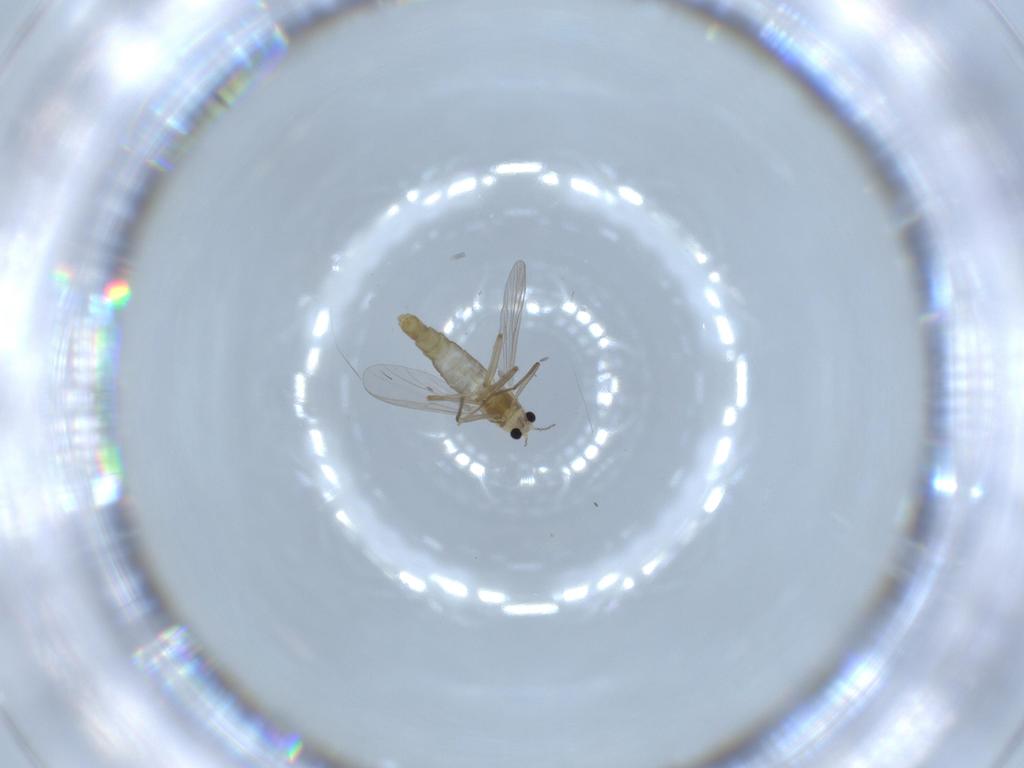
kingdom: Animalia
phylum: Arthropoda
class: Insecta
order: Diptera
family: Chironomidae
